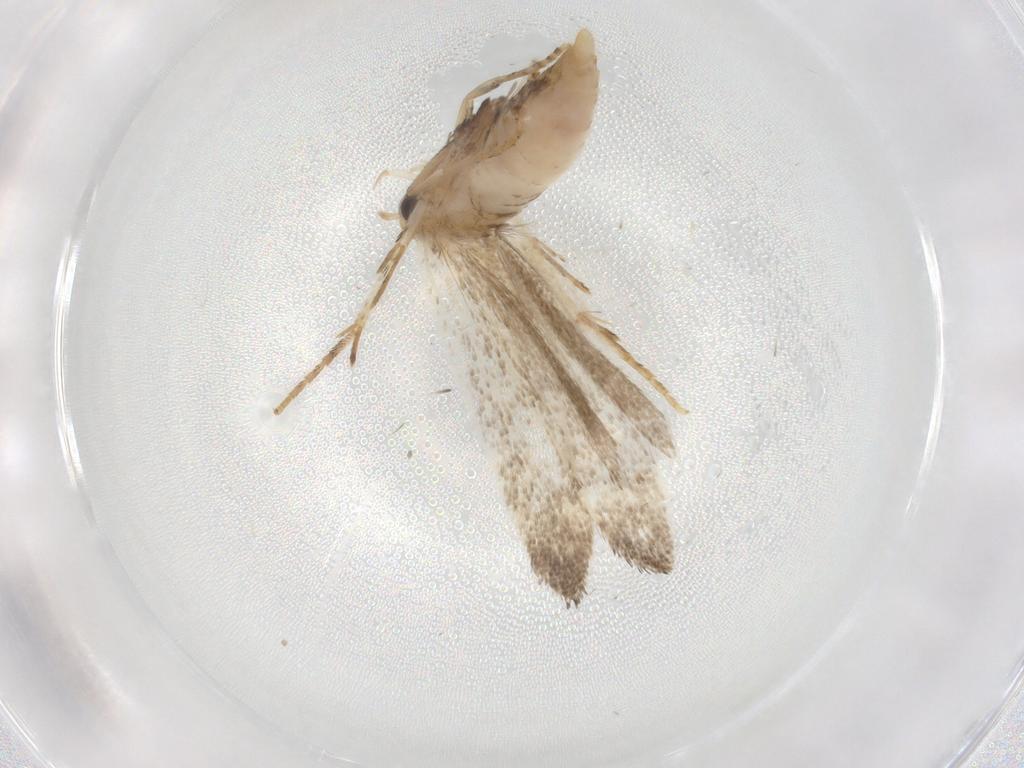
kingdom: Animalia
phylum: Arthropoda
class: Insecta
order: Lepidoptera
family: Gelechiidae
